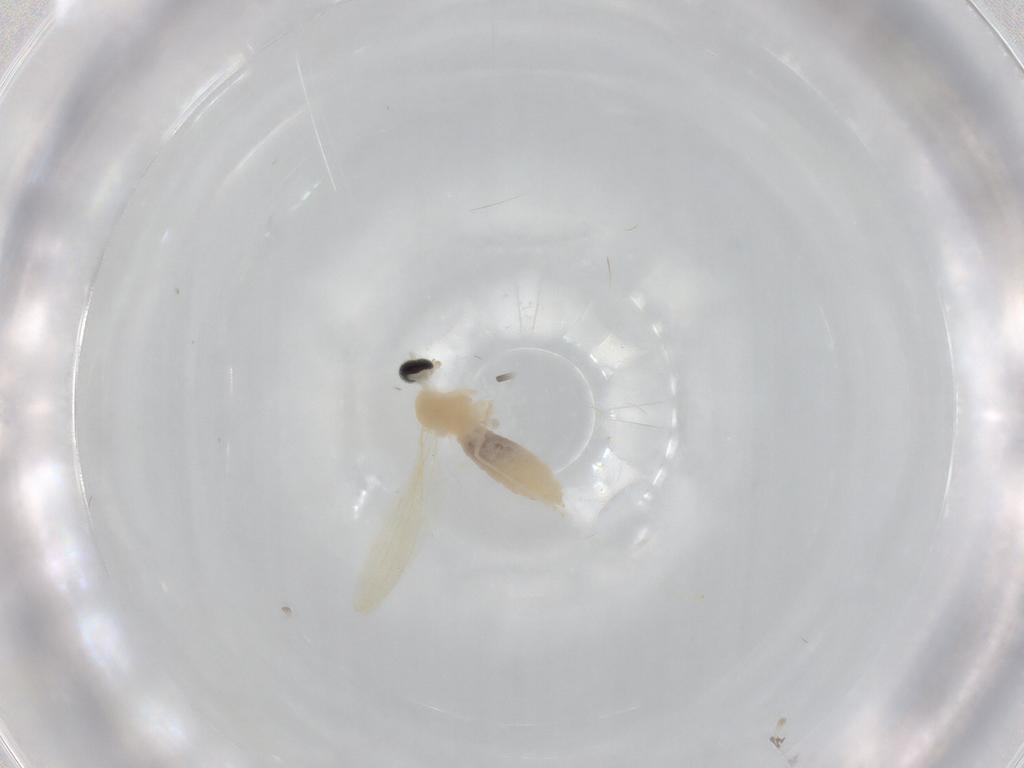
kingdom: Animalia
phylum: Arthropoda
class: Insecta
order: Diptera
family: Cecidomyiidae
